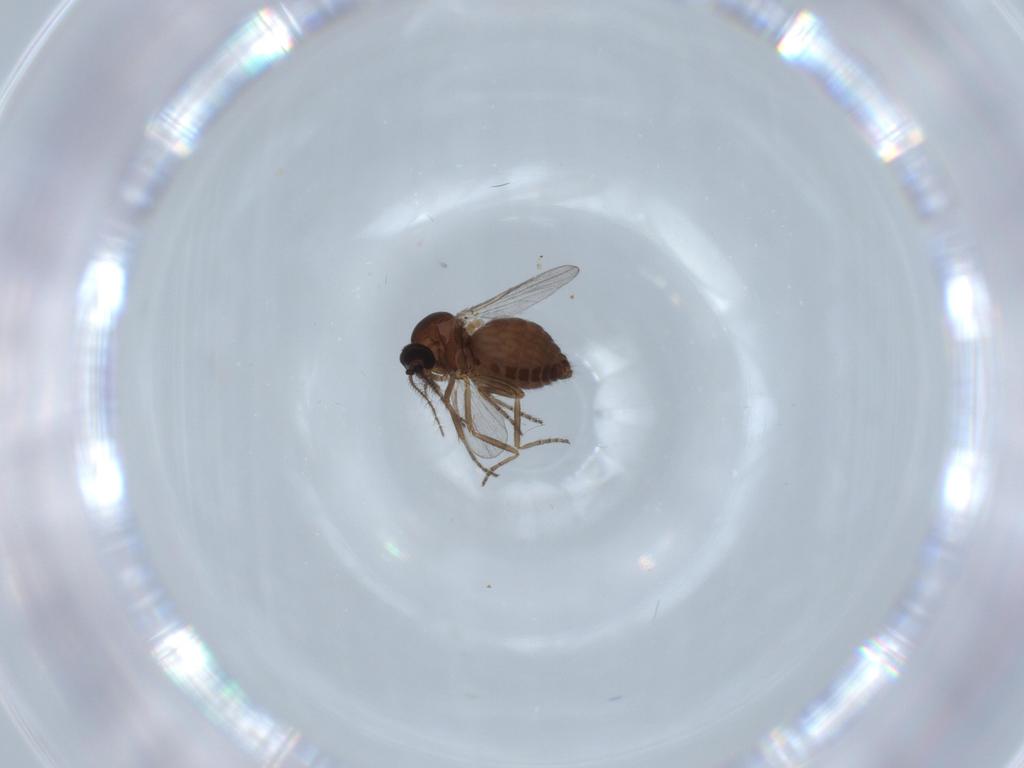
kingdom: Animalia
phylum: Arthropoda
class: Insecta
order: Diptera
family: Ceratopogonidae
